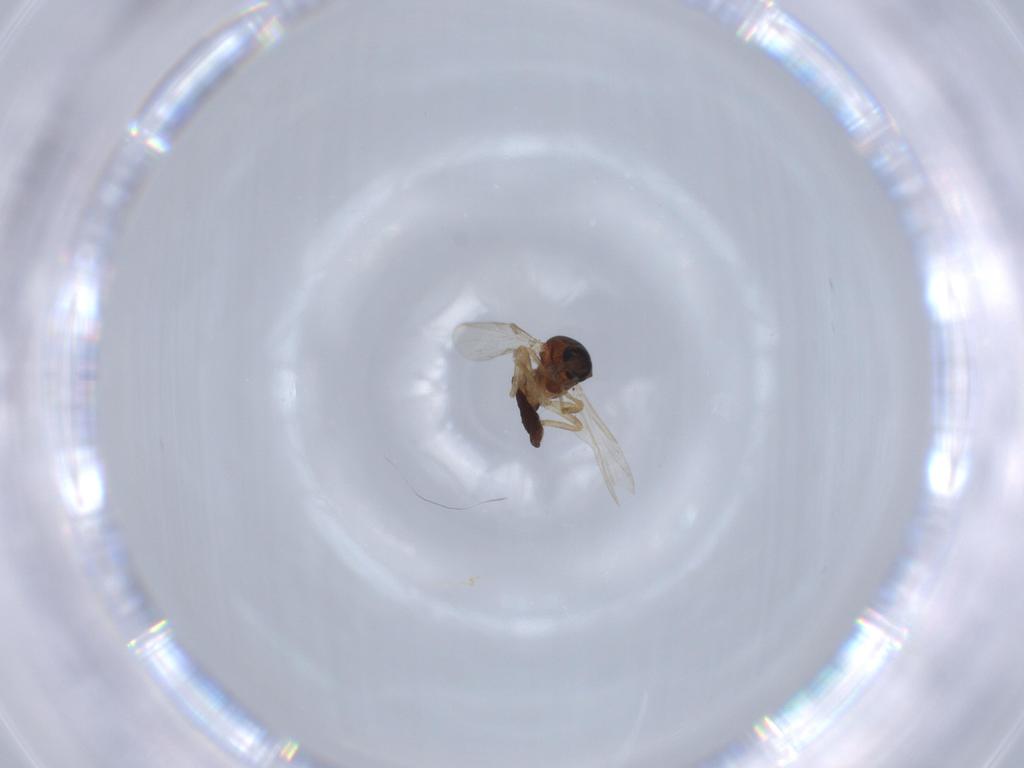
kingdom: Animalia
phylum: Arthropoda
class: Insecta
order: Diptera
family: Ceratopogonidae
